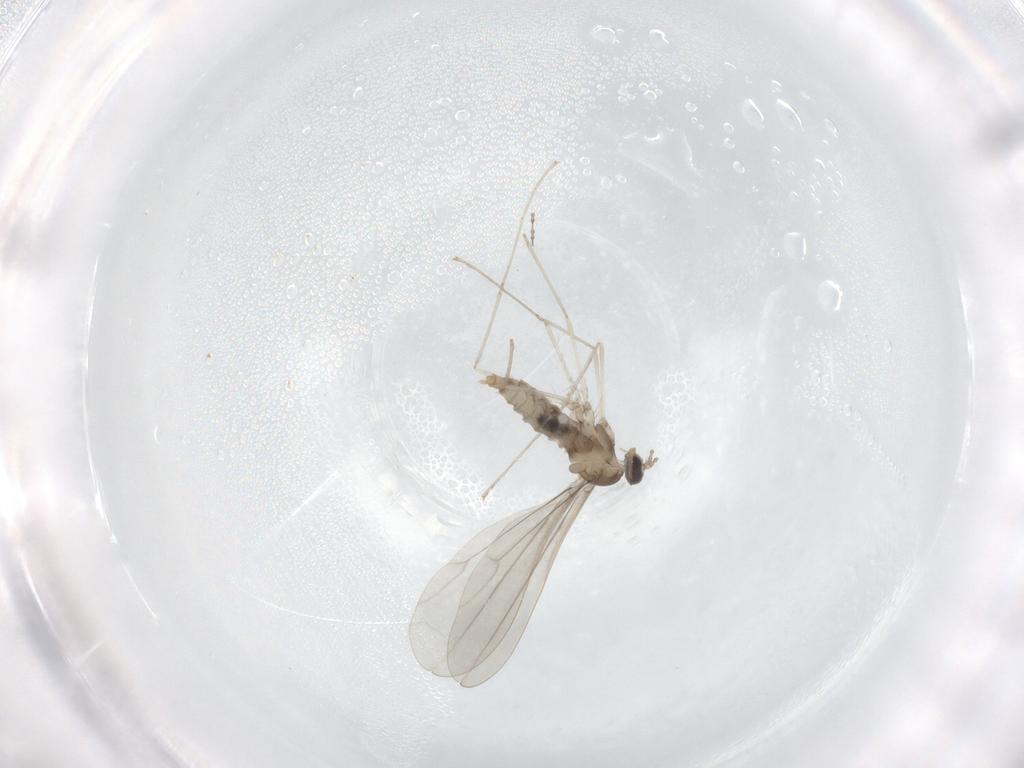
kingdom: Animalia
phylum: Arthropoda
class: Insecta
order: Diptera
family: Cecidomyiidae
